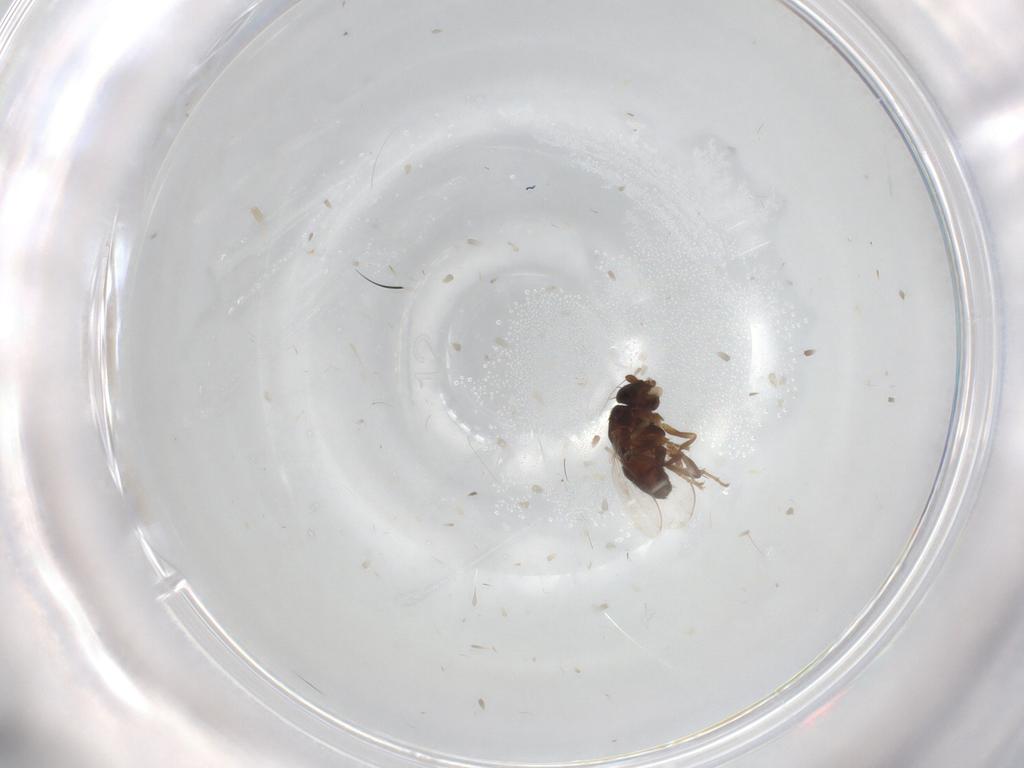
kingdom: Animalia
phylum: Arthropoda
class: Insecta
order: Diptera
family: Sphaeroceridae
